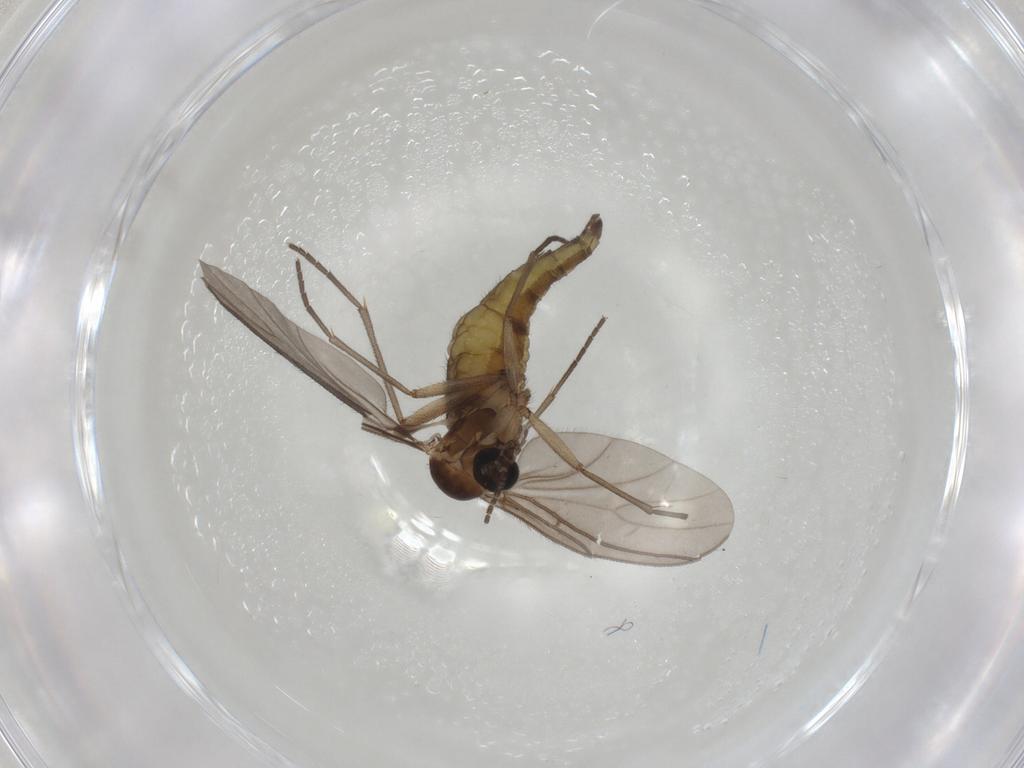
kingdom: Animalia
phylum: Arthropoda
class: Insecta
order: Diptera
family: Sciaridae
